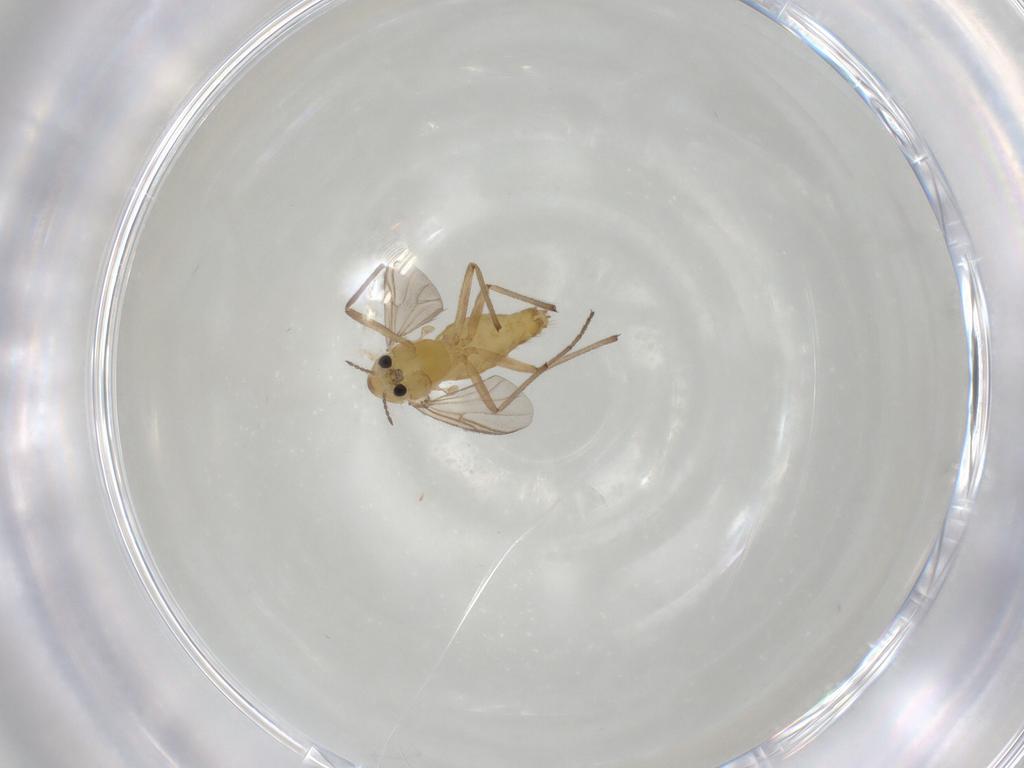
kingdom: Animalia
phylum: Arthropoda
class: Insecta
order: Diptera
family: Chironomidae
